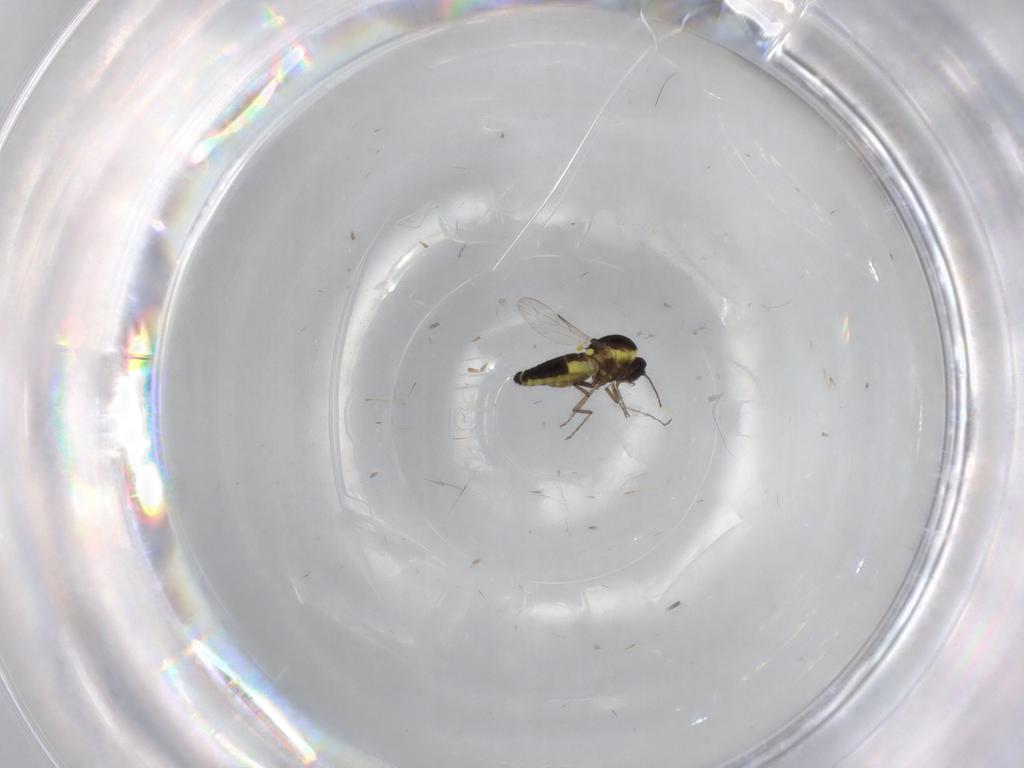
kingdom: Animalia
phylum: Arthropoda
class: Insecta
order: Diptera
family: Ceratopogonidae
